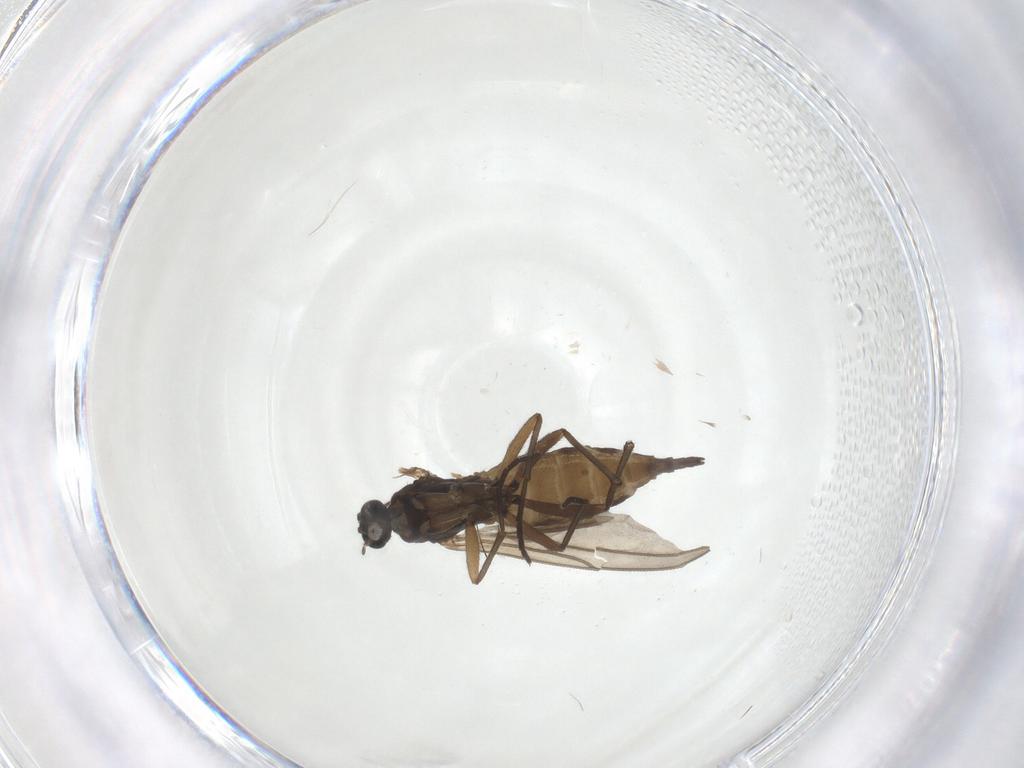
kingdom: Animalia
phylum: Arthropoda
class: Insecta
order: Diptera
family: Sciaridae
